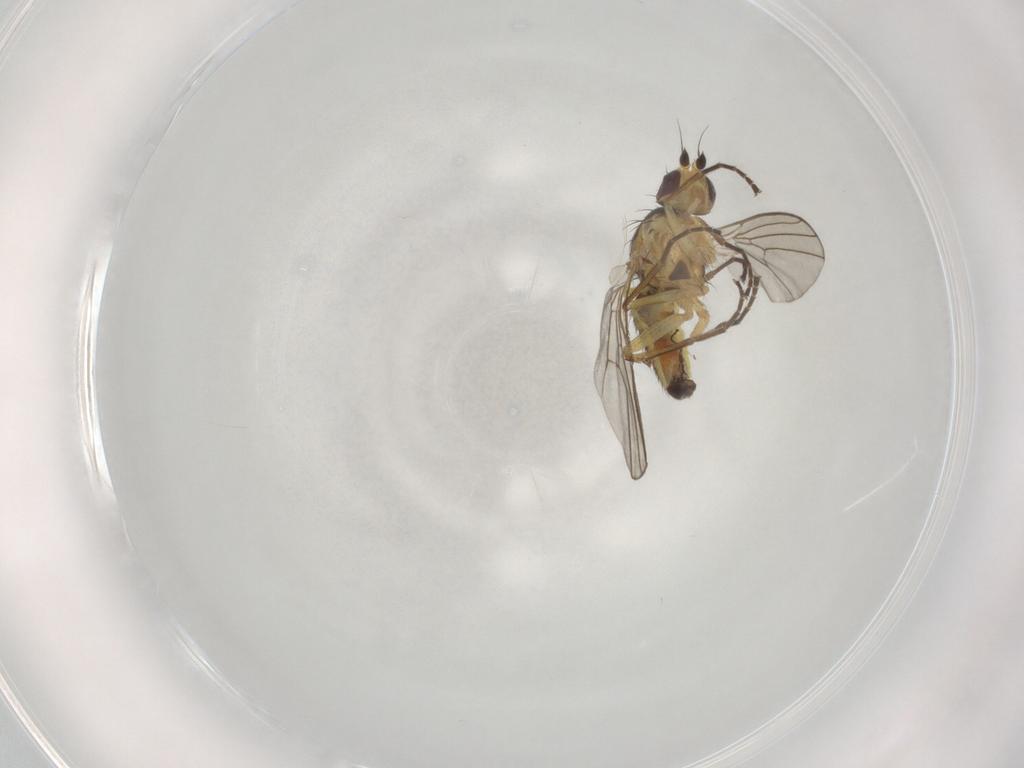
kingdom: Animalia
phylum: Arthropoda
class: Insecta
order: Diptera
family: Agromyzidae
